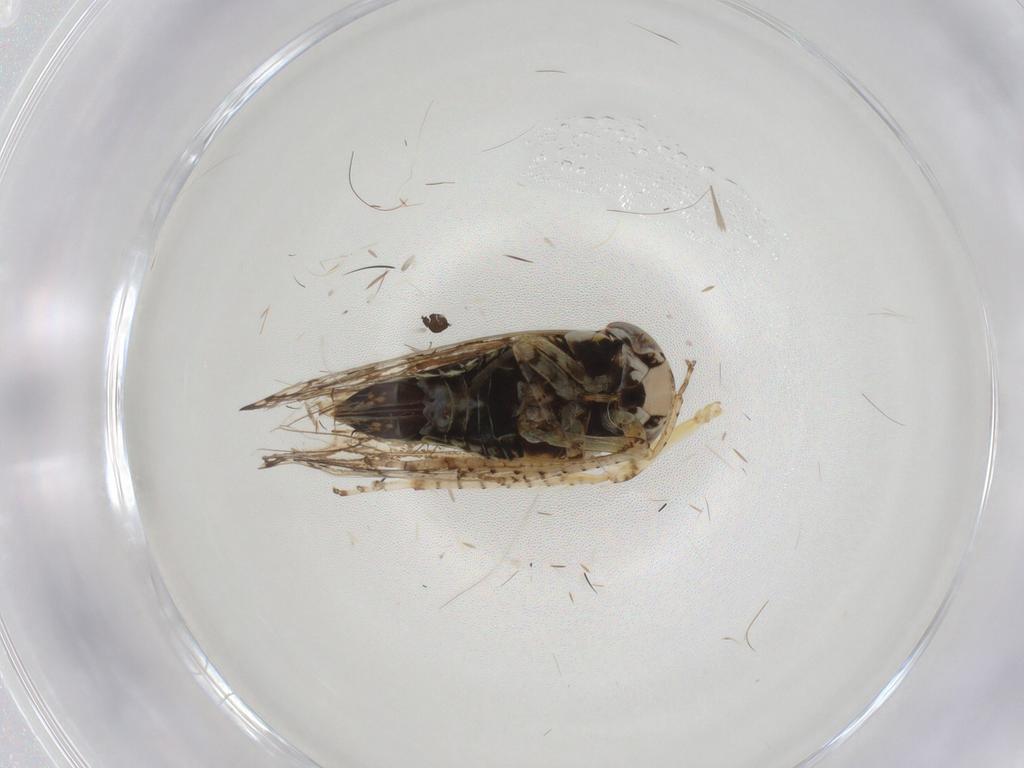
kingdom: Animalia
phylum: Arthropoda
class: Insecta
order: Hemiptera
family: Cicadellidae
